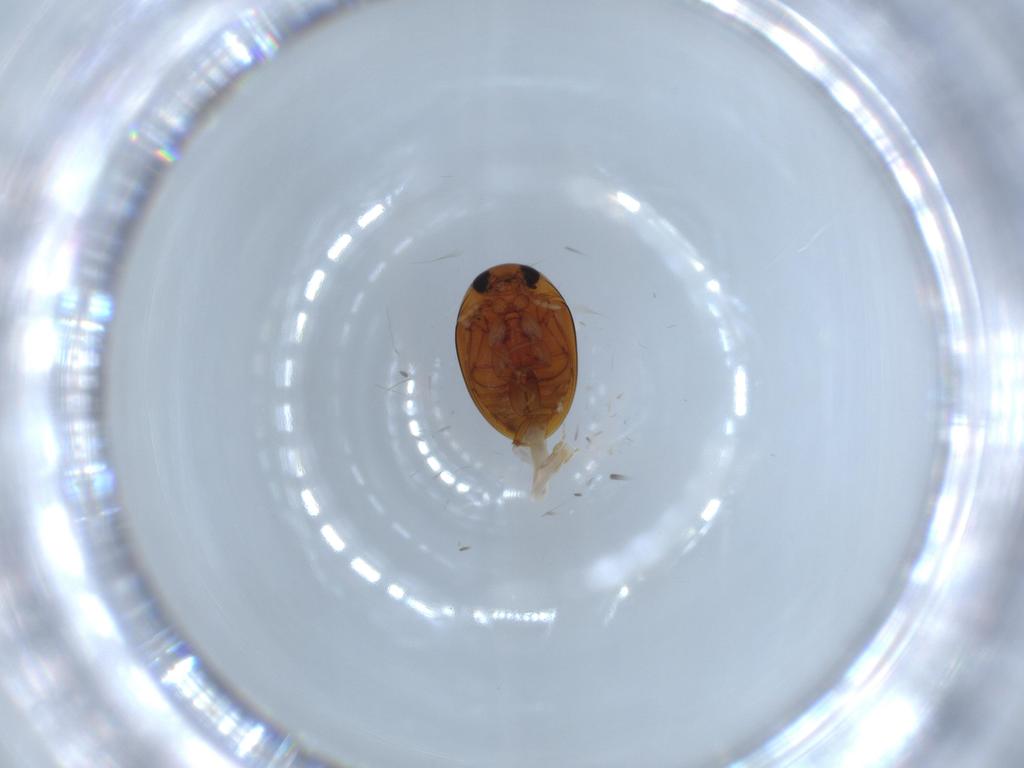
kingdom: Animalia
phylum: Arthropoda
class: Insecta
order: Coleoptera
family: Phalacridae
